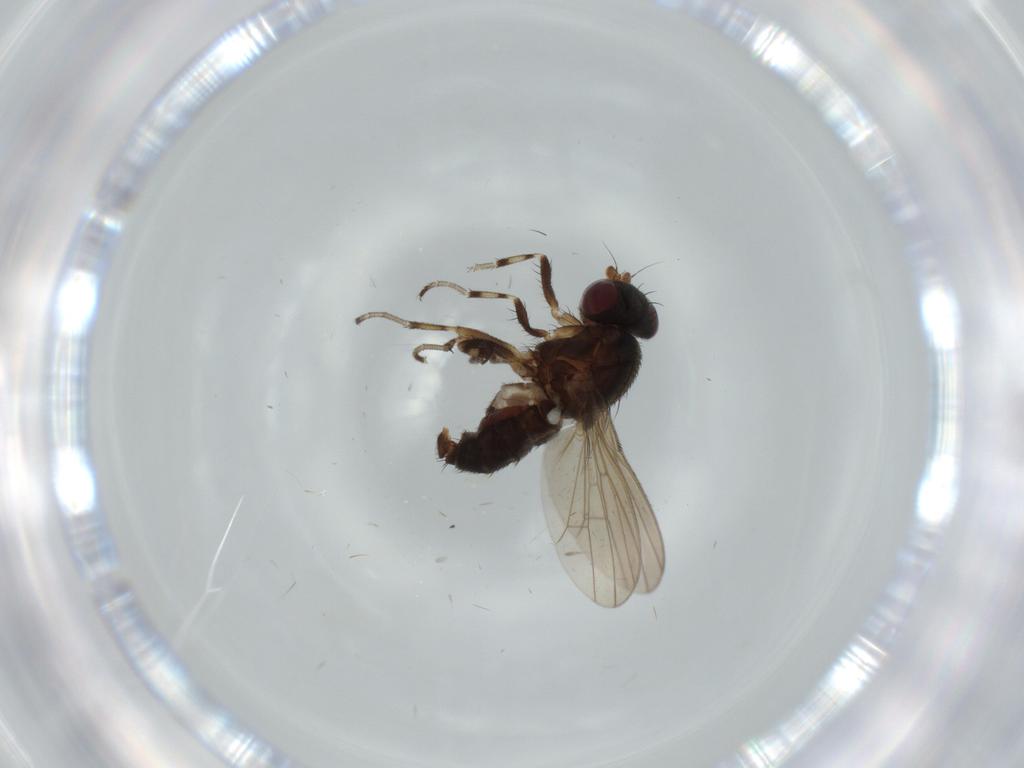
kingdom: Animalia
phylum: Arthropoda
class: Insecta
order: Diptera
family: Heleomyzidae
